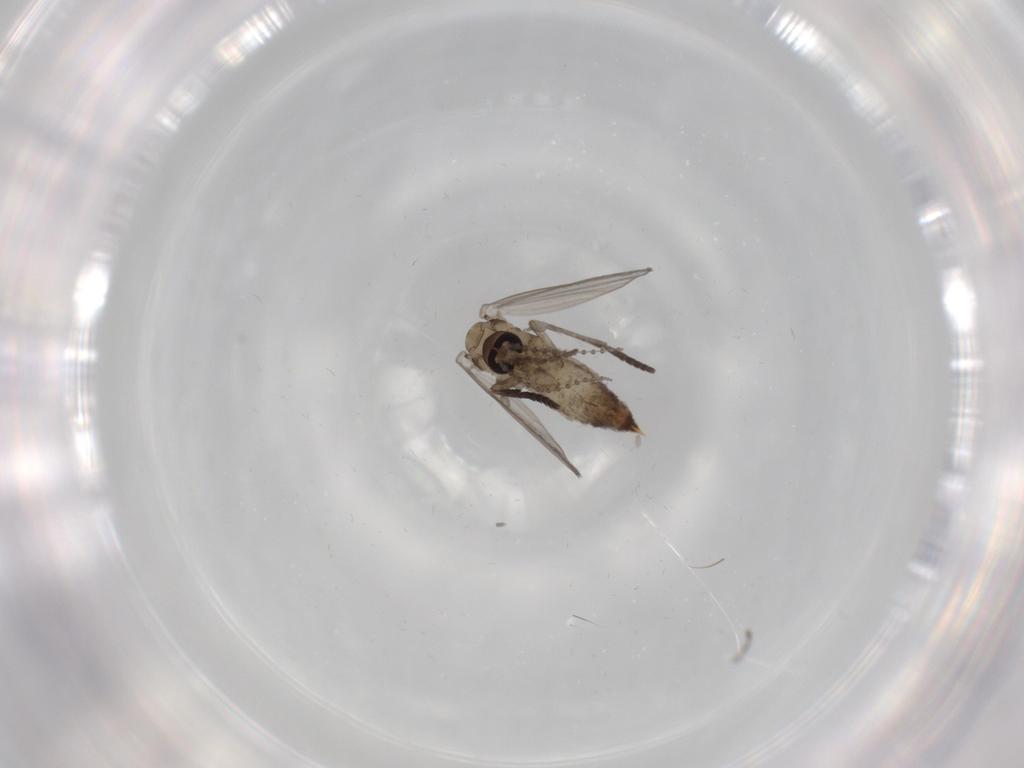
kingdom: Animalia
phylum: Arthropoda
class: Insecta
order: Diptera
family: Psychodidae
